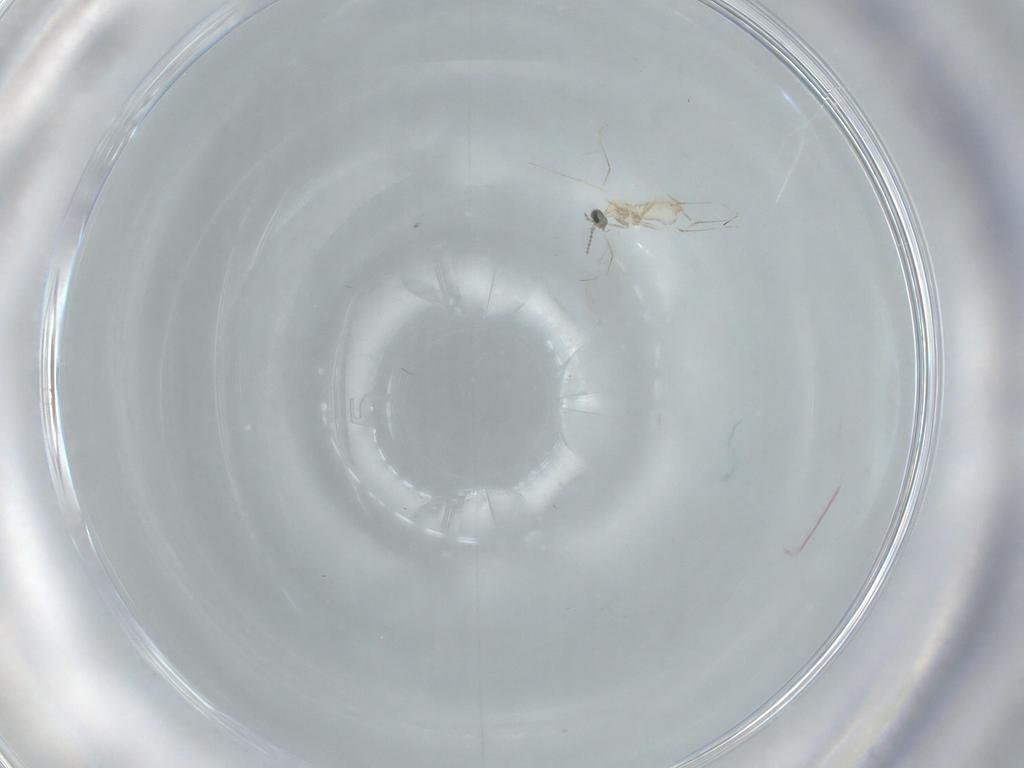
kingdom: Animalia
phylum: Arthropoda
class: Insecta
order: Diptera
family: Cecidomyiidae
